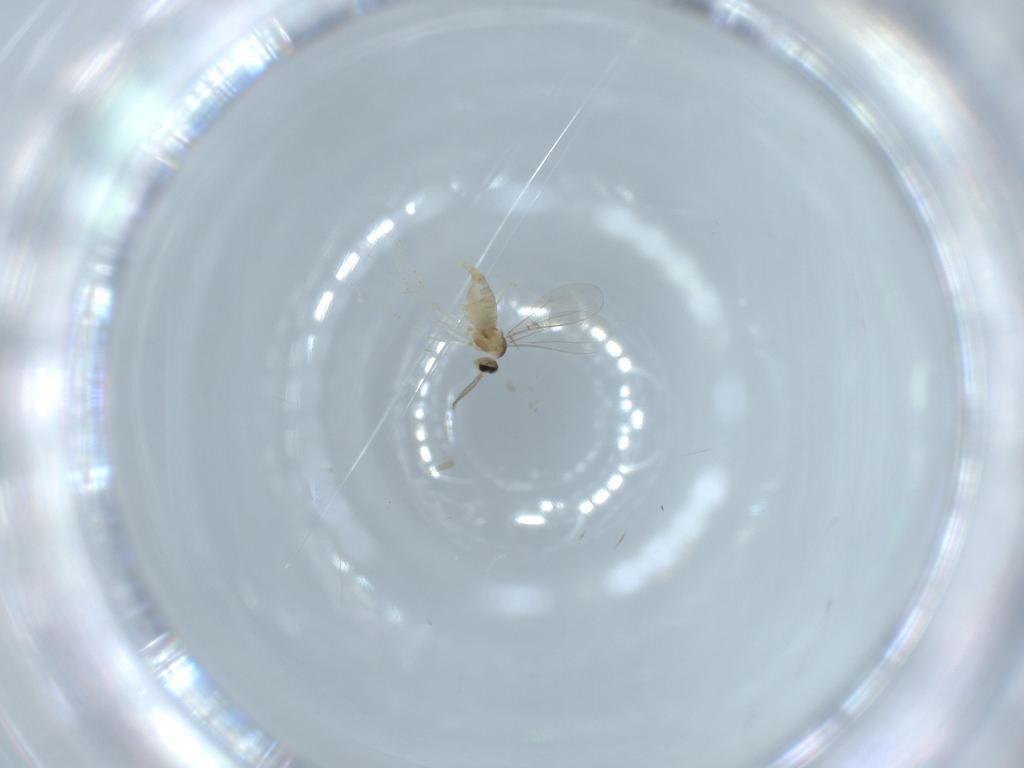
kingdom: Animalia
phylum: Arthropoda
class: Insecta
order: Diptera
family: Cecidomyiidae
